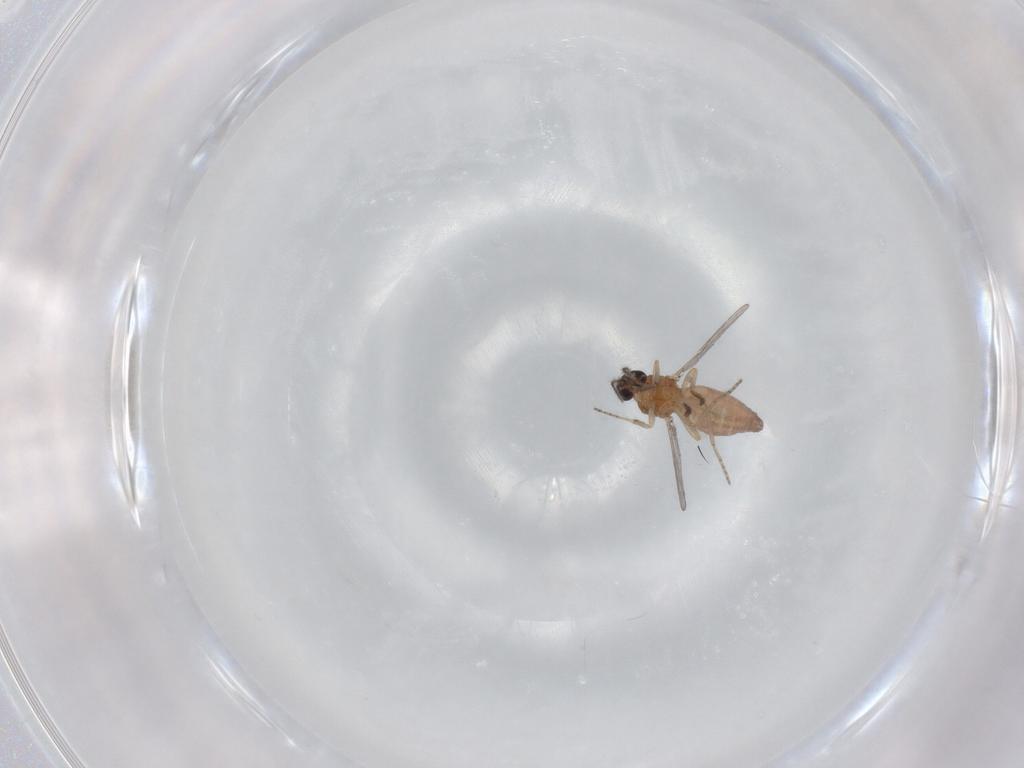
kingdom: Animalia
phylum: Arthropoda
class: Insecta
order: Diptera
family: Ceratopogonidae
